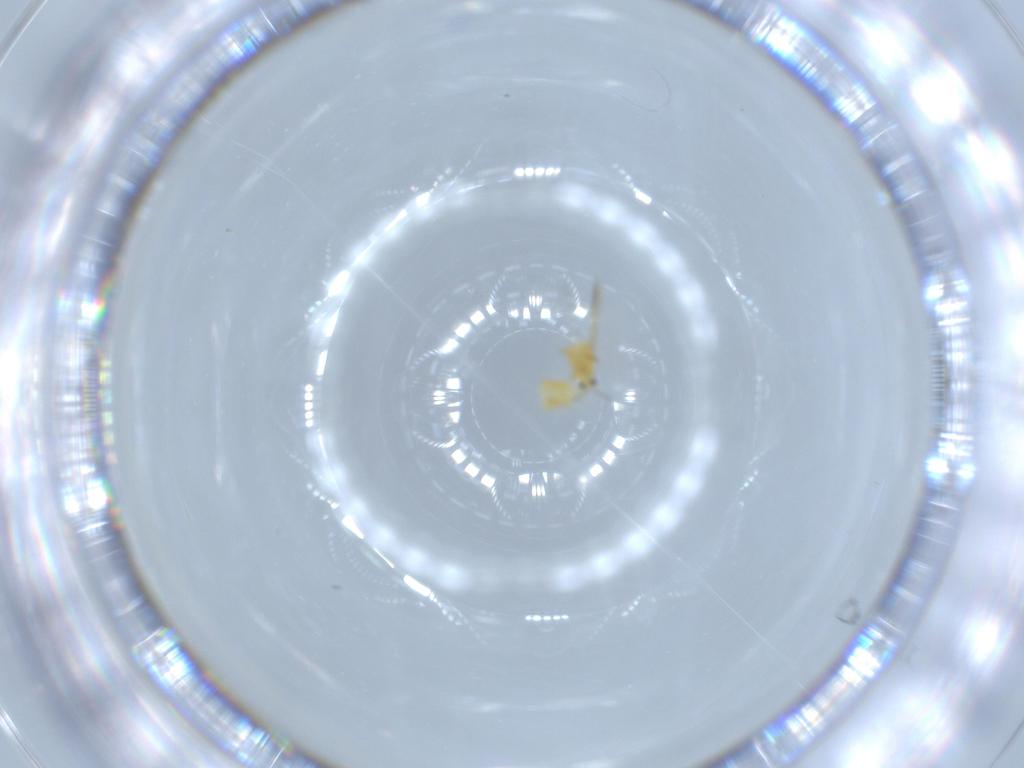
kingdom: Animalia
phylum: Arthropoda
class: Insecta
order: Thysanoptera
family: Thripidae
